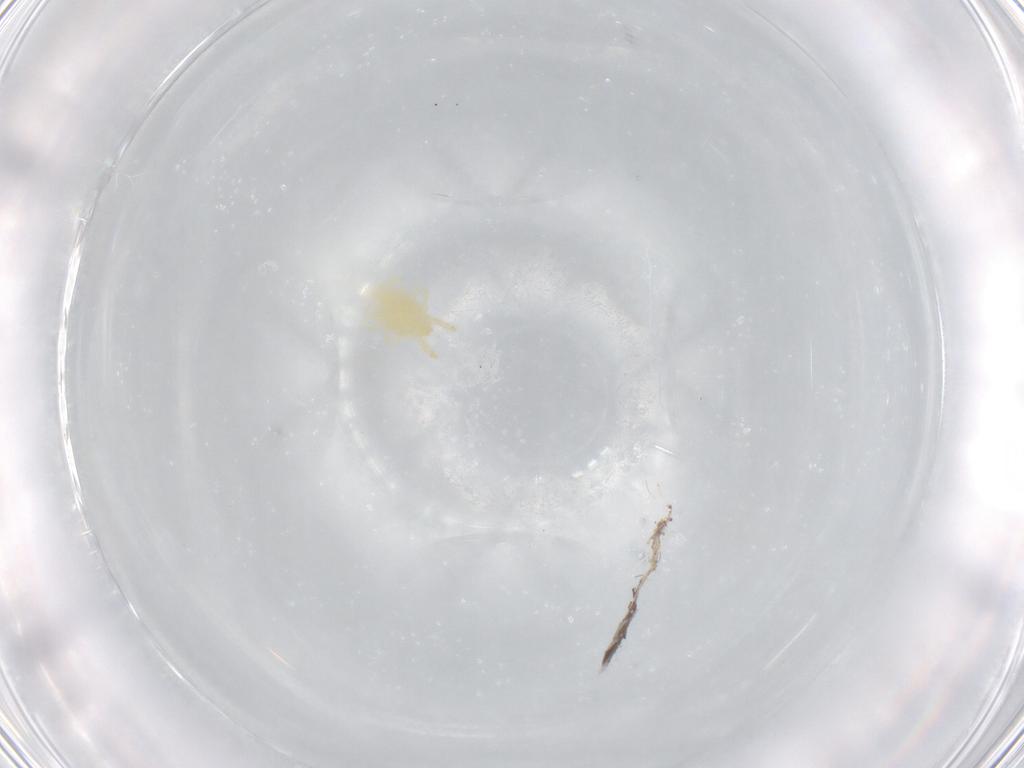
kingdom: Animalia
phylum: Arthropoda
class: Arachnida
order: Trombidiformes
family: Trombidiidae
